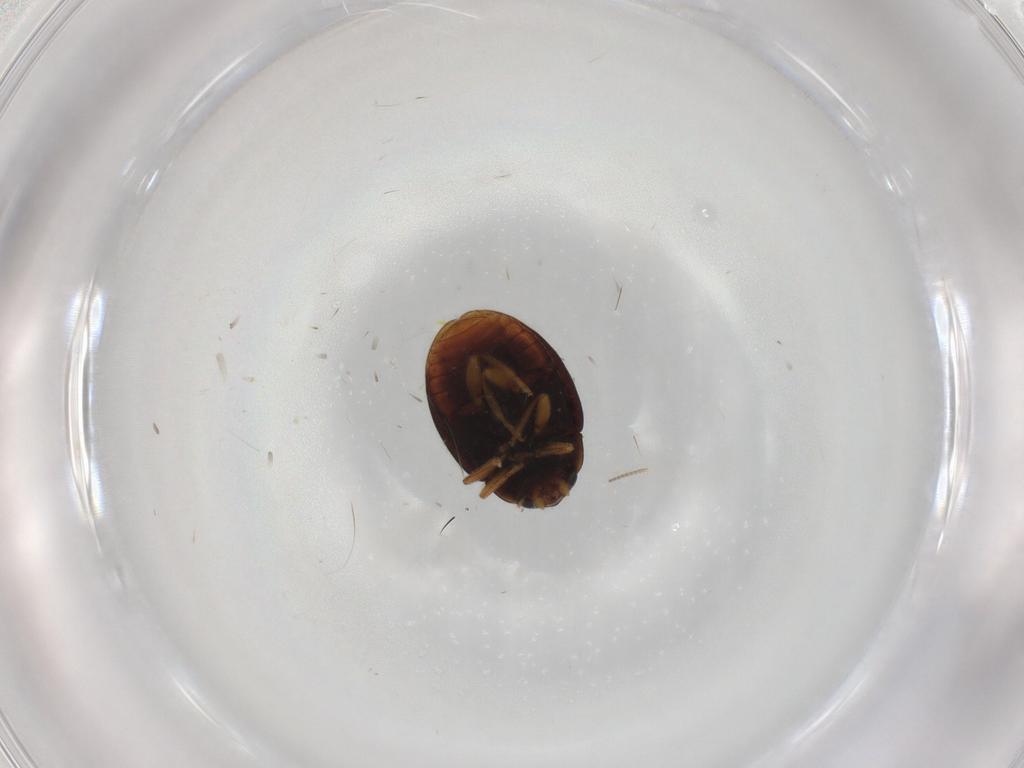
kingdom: Animalia
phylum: Arthropoda
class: Insecta
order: Coleoptera
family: Coccinellidae
